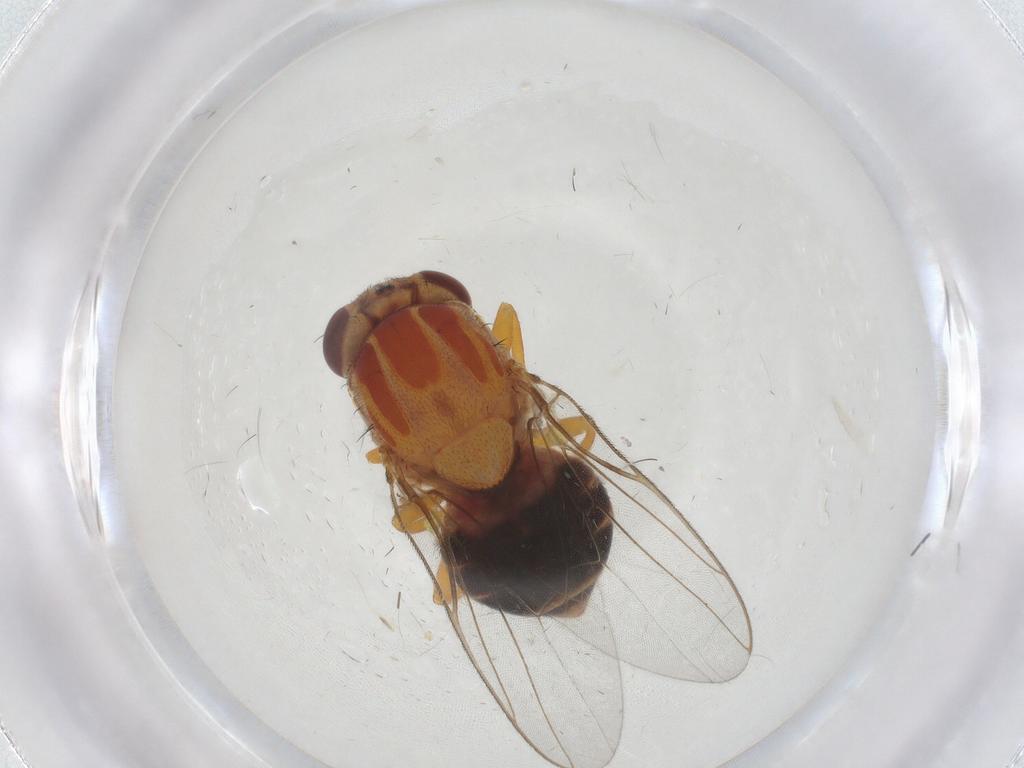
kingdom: Animalia
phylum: Arthropoda
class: Insecta
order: Diptera
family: Chloropidae
